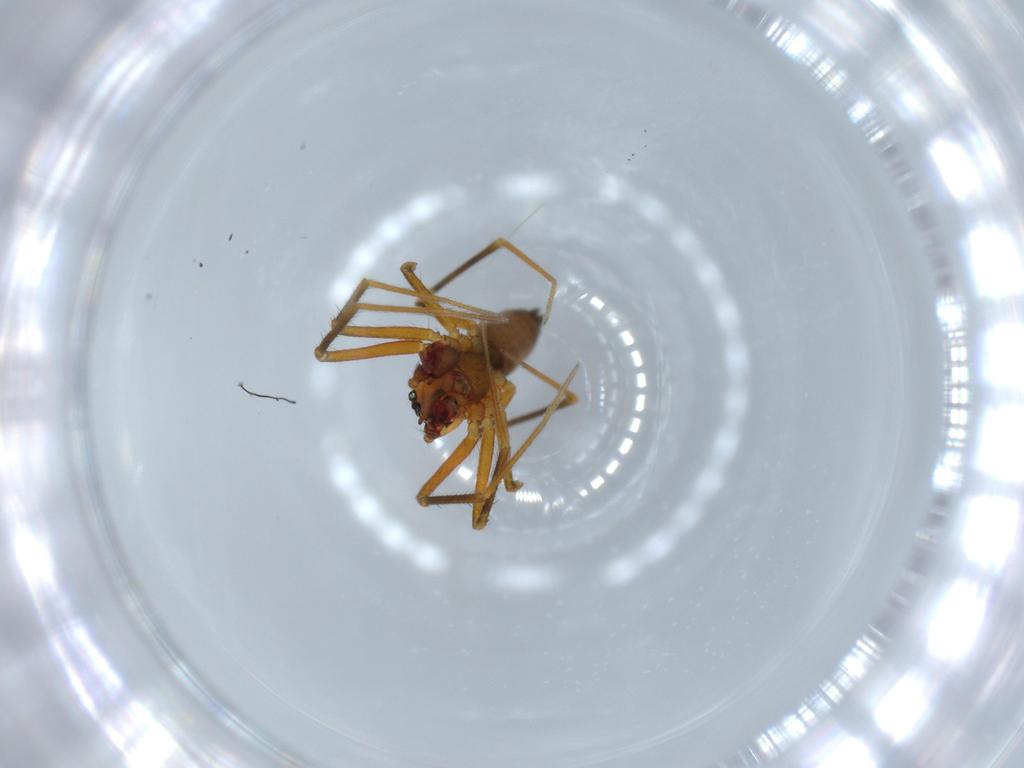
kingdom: Animalia
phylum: Arthropoda
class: Arachnida
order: Araneae
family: Linyphiidae
